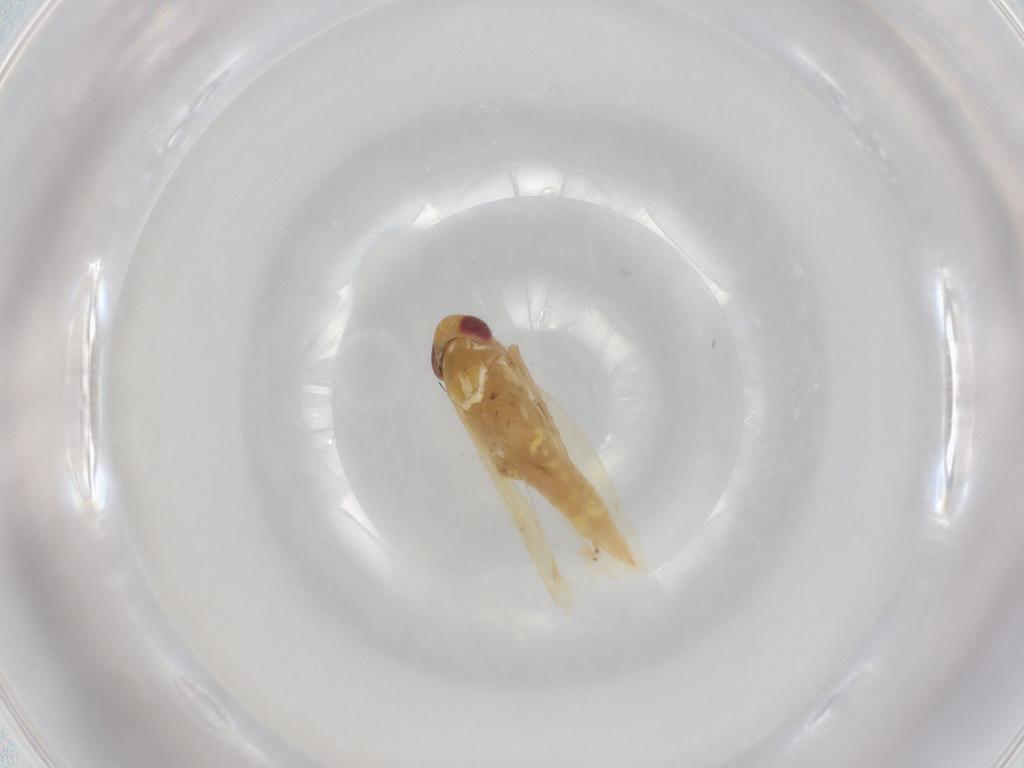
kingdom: Animalia
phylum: Arthropoda
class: Insecta
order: Hemiptera
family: Cicadellidae
